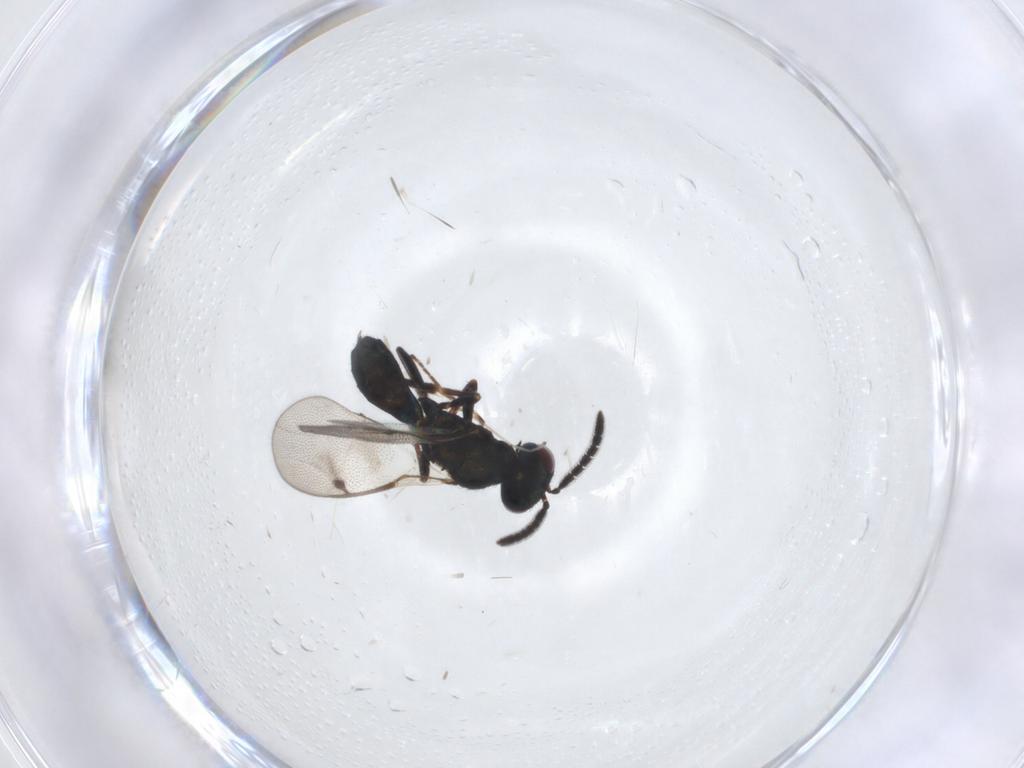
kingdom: Animalia
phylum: Arthropoda
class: Insecta
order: Hymenoptera
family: Pteromalidae
